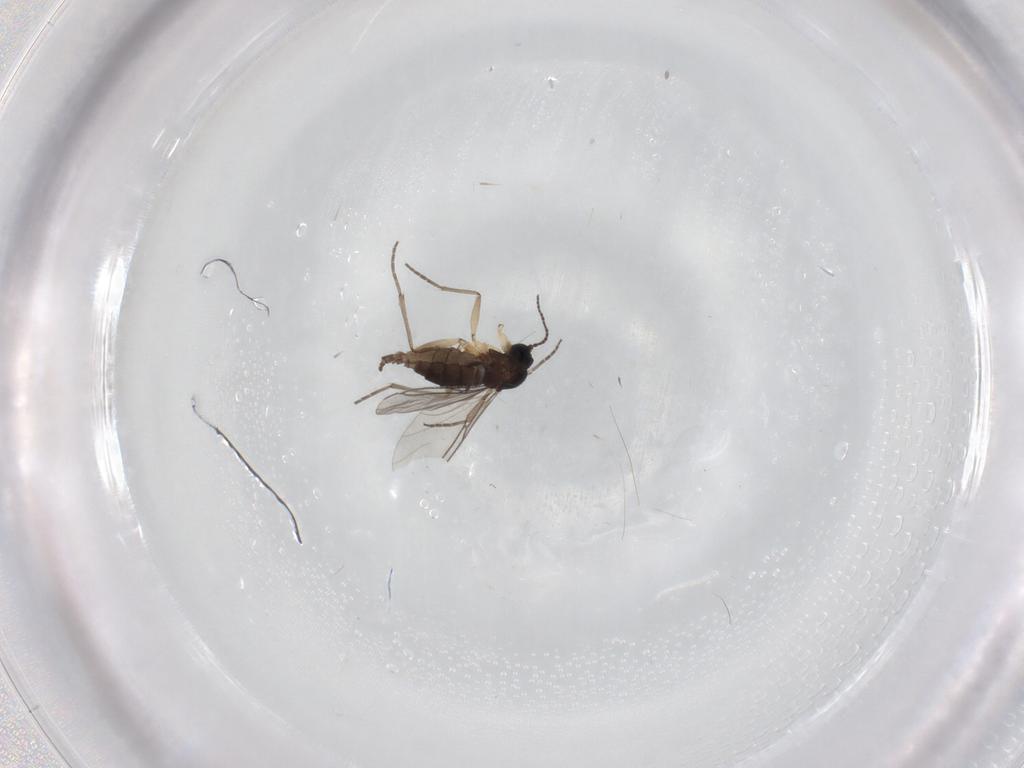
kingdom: Animalia
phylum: Arthropoda
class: Insecta
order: Diptera
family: Sciaridae
